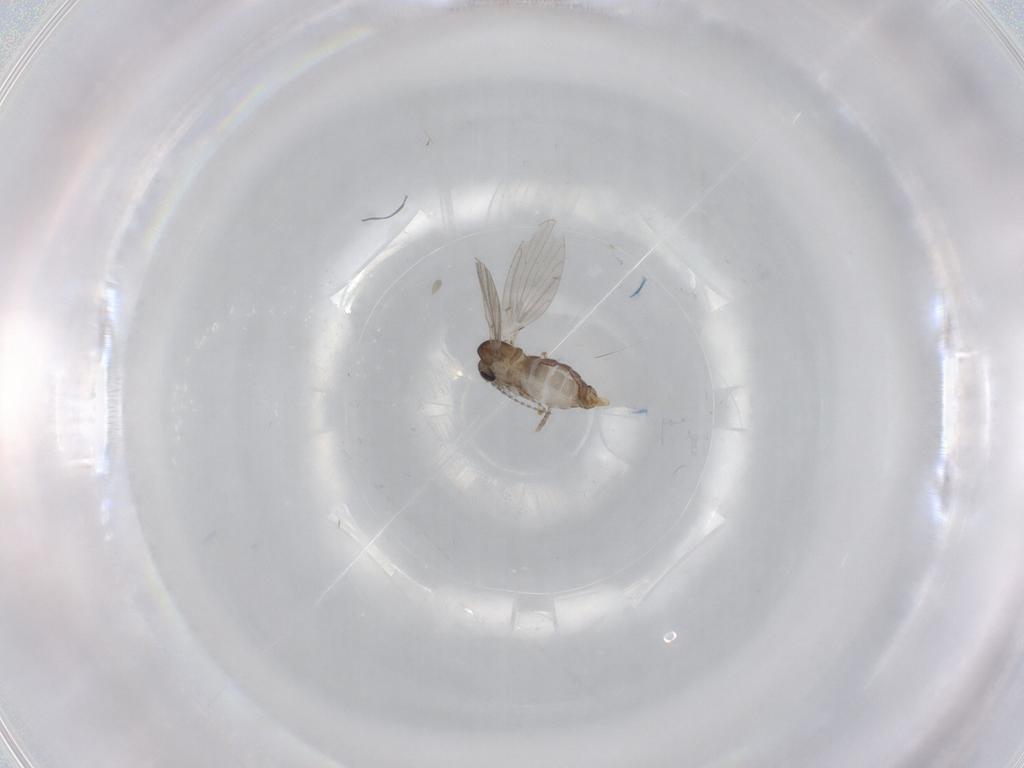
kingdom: Animalia
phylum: Arthropoda
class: Insecta
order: Diptera
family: Psychodidae
